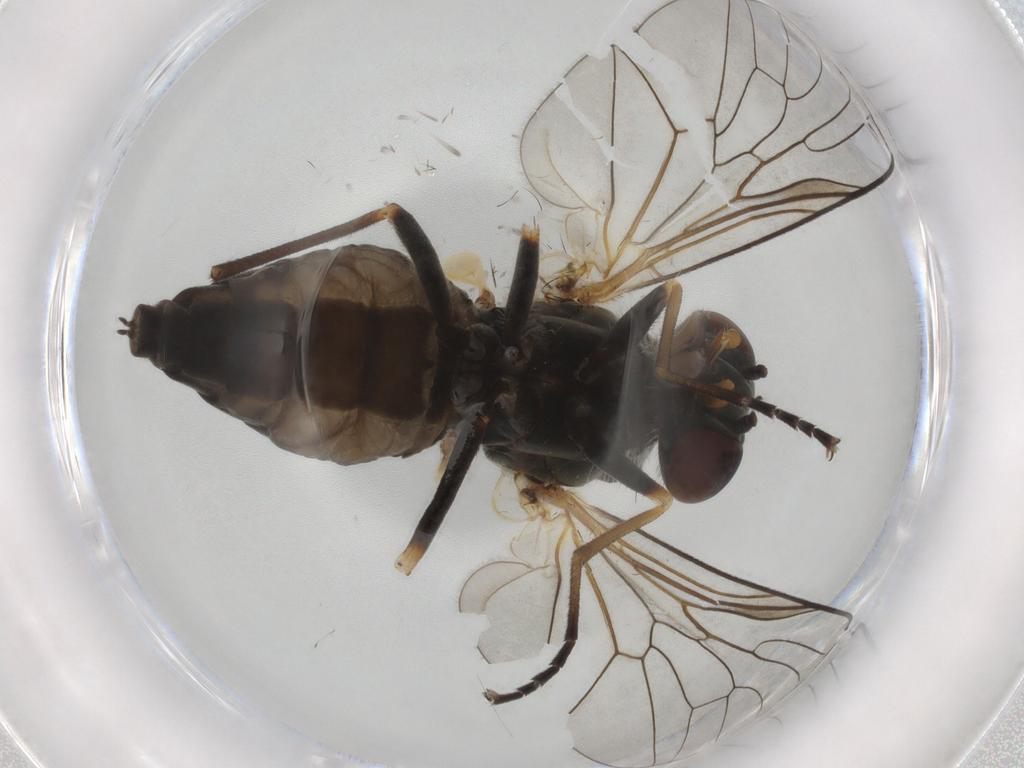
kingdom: Animalia
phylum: Arthropoda
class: Insecta
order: Diptera
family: Rhagionidae
